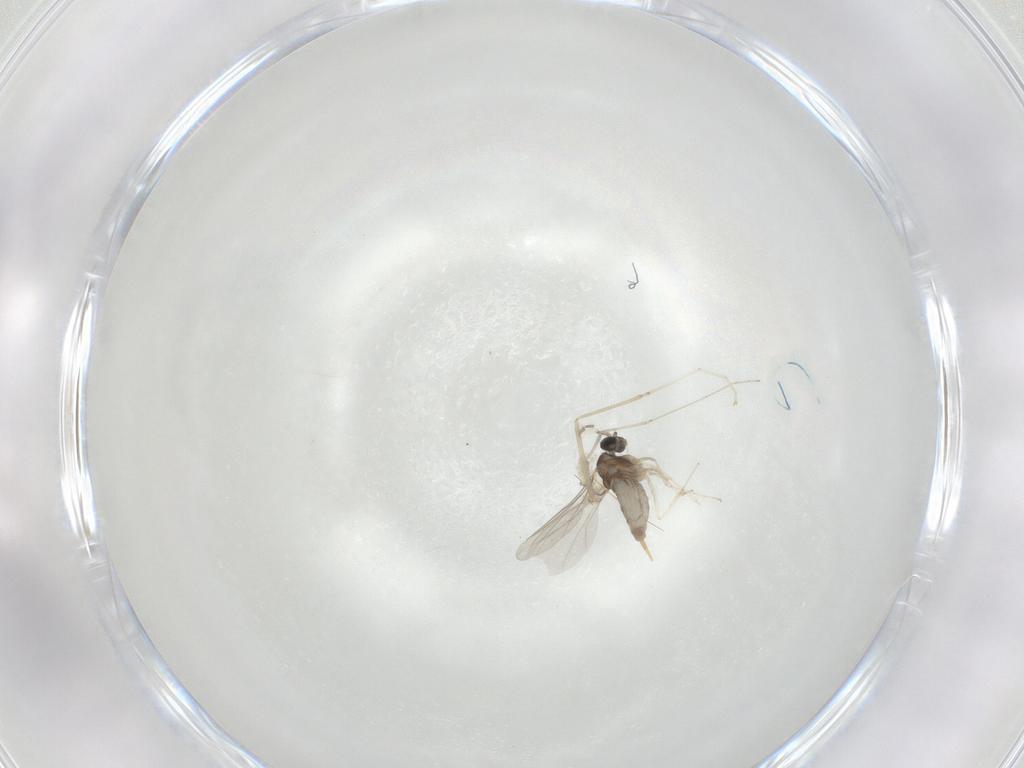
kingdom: Animalia
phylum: Arthropoda
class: Insecta
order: Diptera
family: Cecidomyiidae
